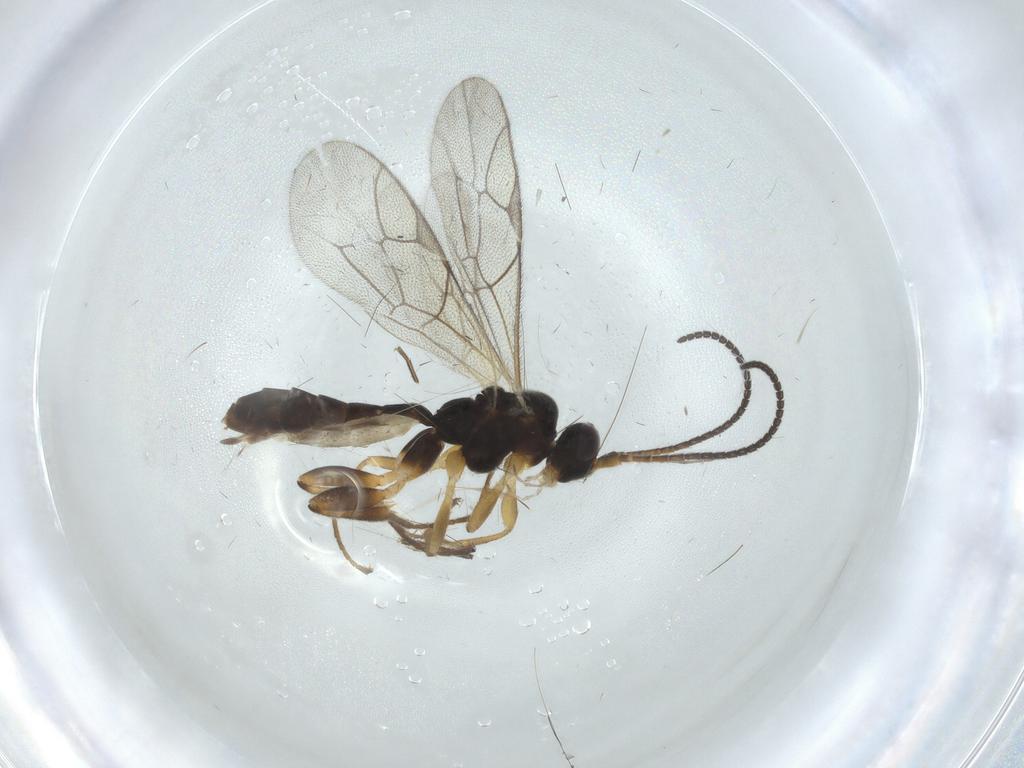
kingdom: Animalia
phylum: Arthropoda
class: Insecta
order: Hymenoptera
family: Ichneumonidae
